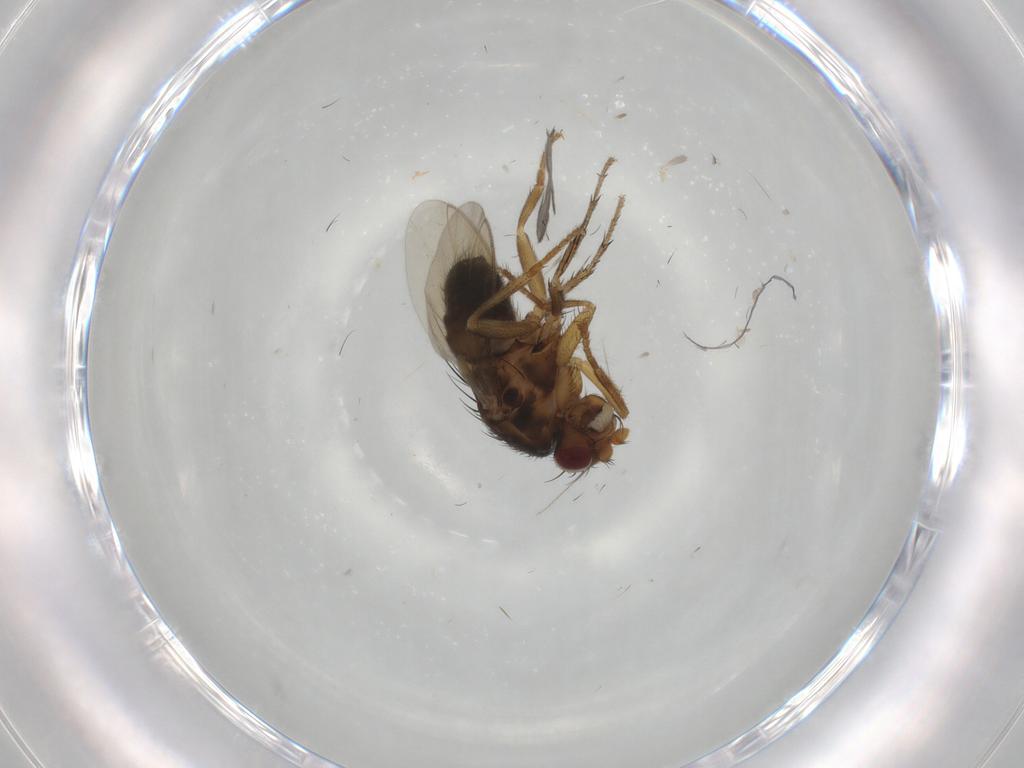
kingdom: Animalia
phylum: Arthropoda
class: Insecta
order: Diptera
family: Sphaeroceridae
